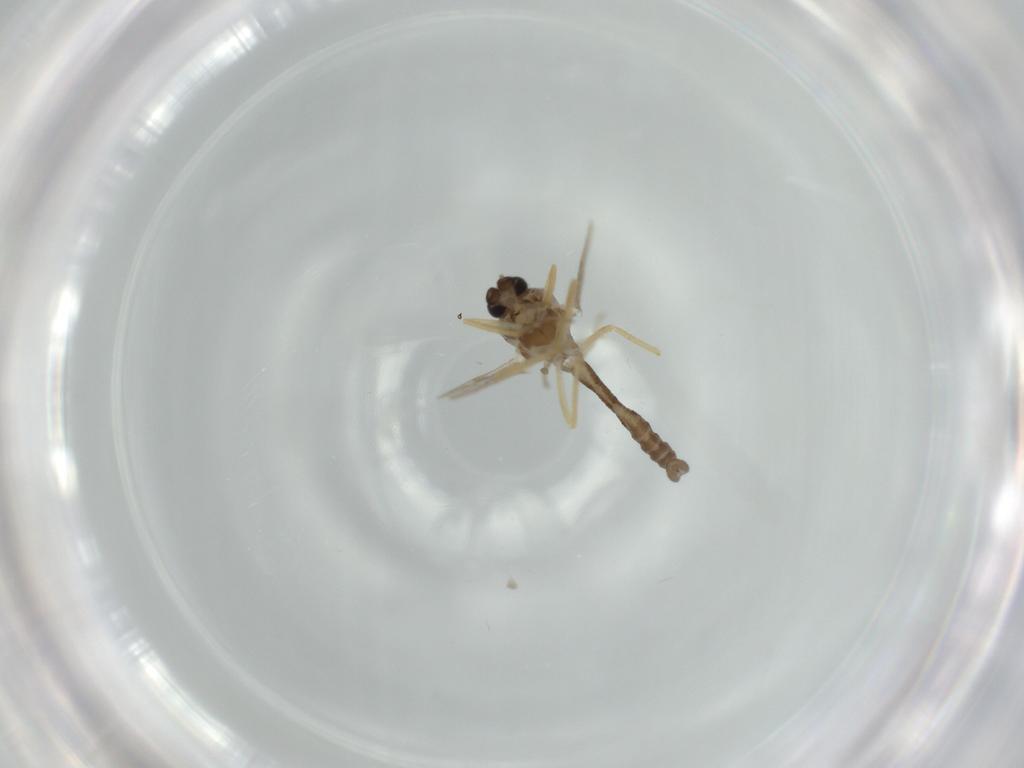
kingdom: Animalia
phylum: Arthropoda
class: Insecta
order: Diptera
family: Ceratopogonidae
